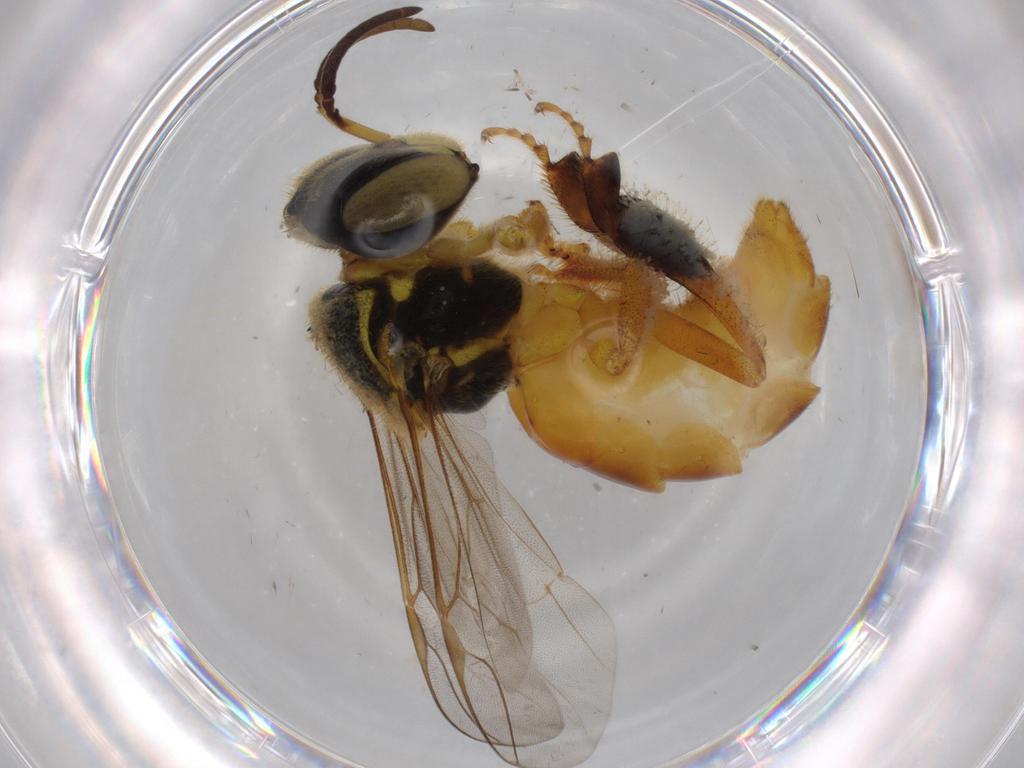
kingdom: Animalia
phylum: Arthropoda
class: Insecta
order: Hymenoptera
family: Apidae
